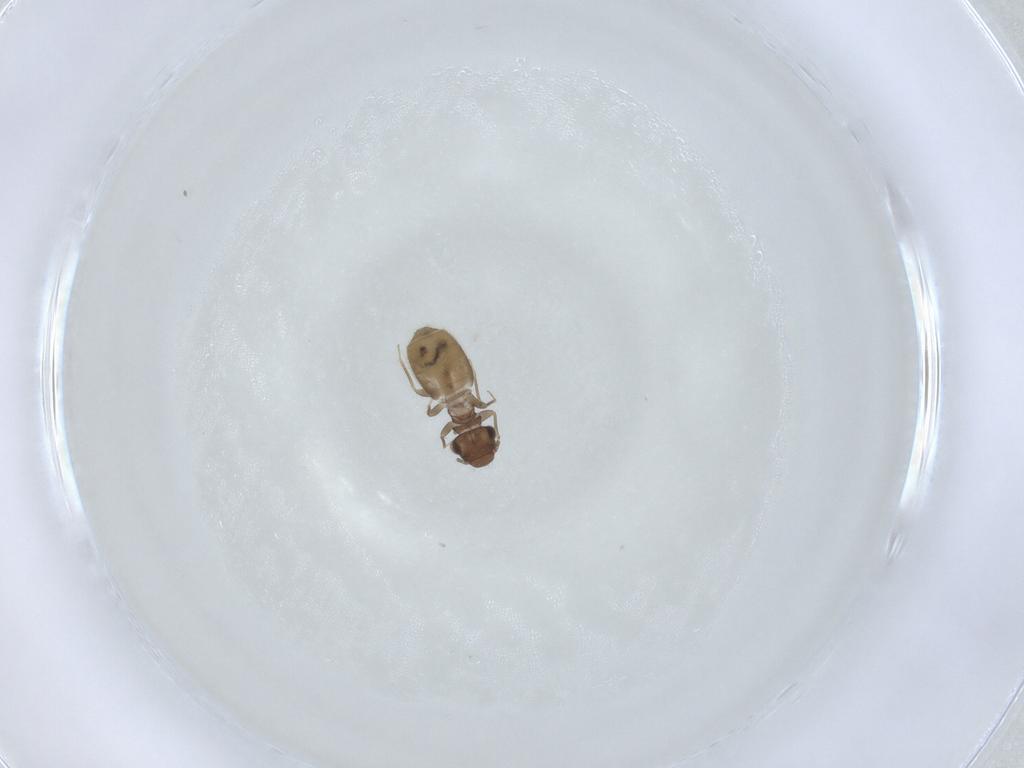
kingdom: Animalia
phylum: Arthropoda
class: Insecta
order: Psocodea
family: Trogiidae
